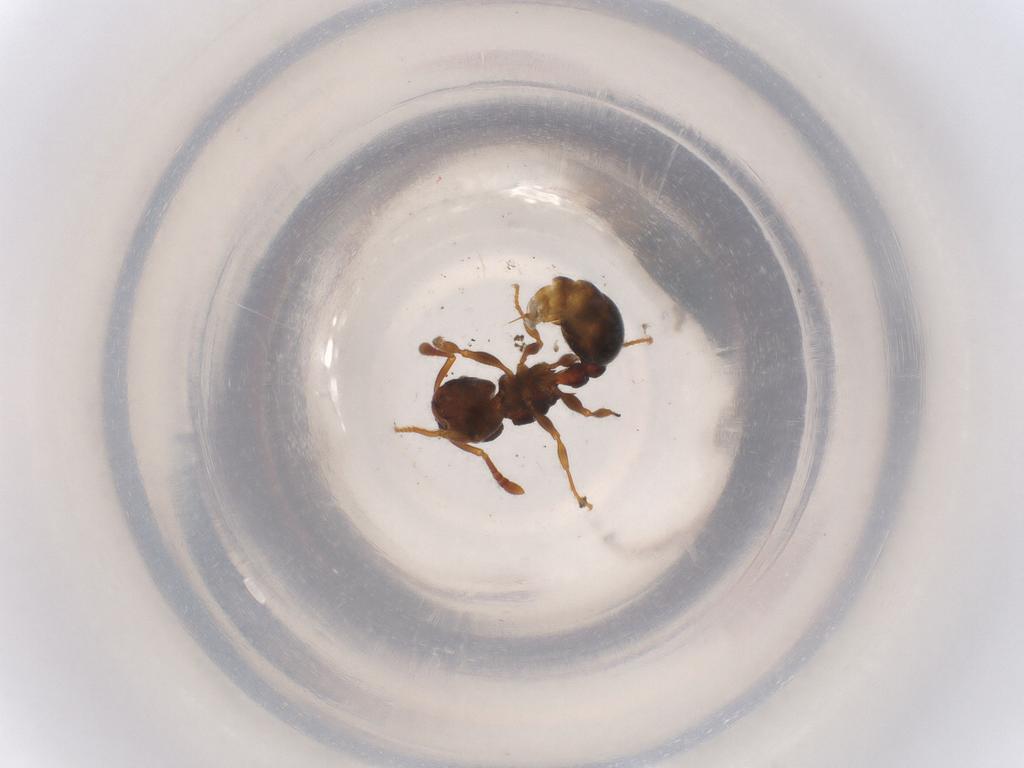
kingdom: Animalia
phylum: Arthropoda
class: Insecta
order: Hymenoptera
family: Formicidae
